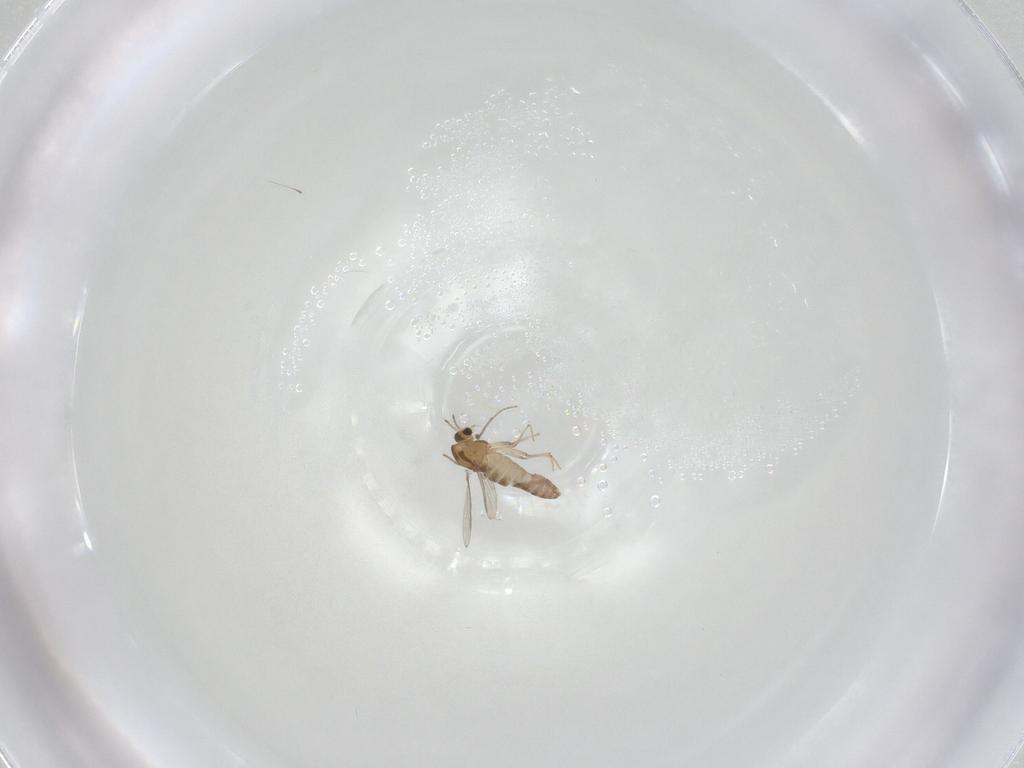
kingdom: Animalia
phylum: Arthropoda
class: Insecta
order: Diptera
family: Chironomidae
